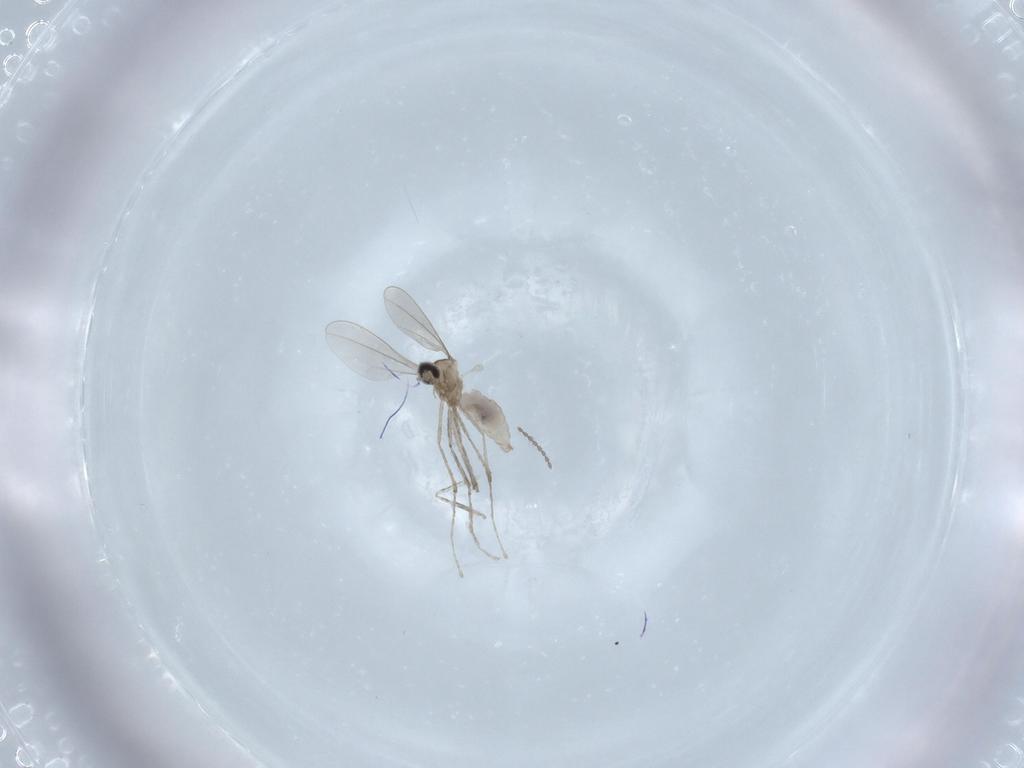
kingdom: Animalia
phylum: Arthropoda
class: Insecta
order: Diptera
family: Cecidomyiidae
